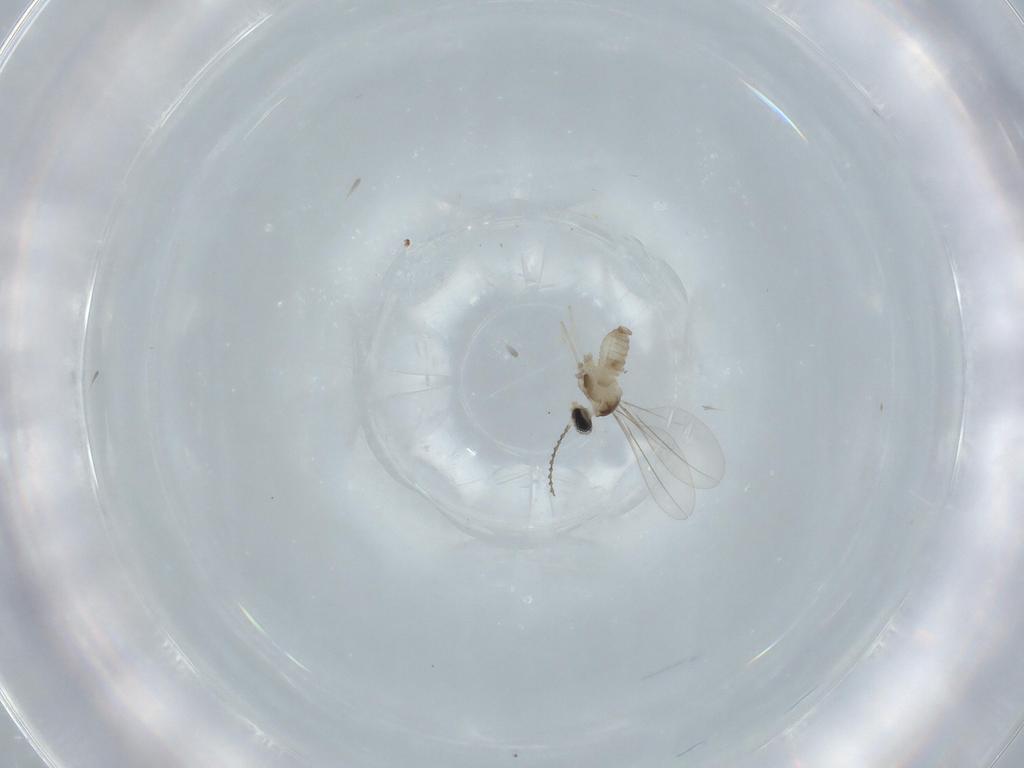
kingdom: Animalia
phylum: Arthropoda
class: Insecta
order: Diptera
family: Cecidomyiidae
